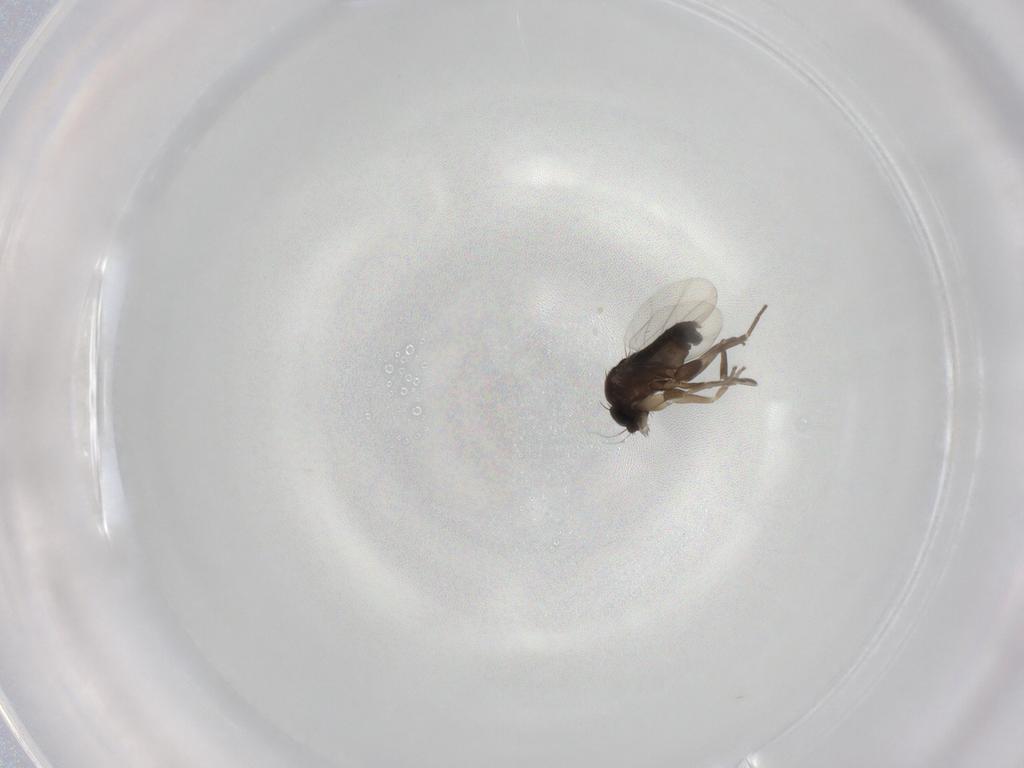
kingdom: Animalia
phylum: Arthropoda
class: Insecta
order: Diptera
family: Phoridae
